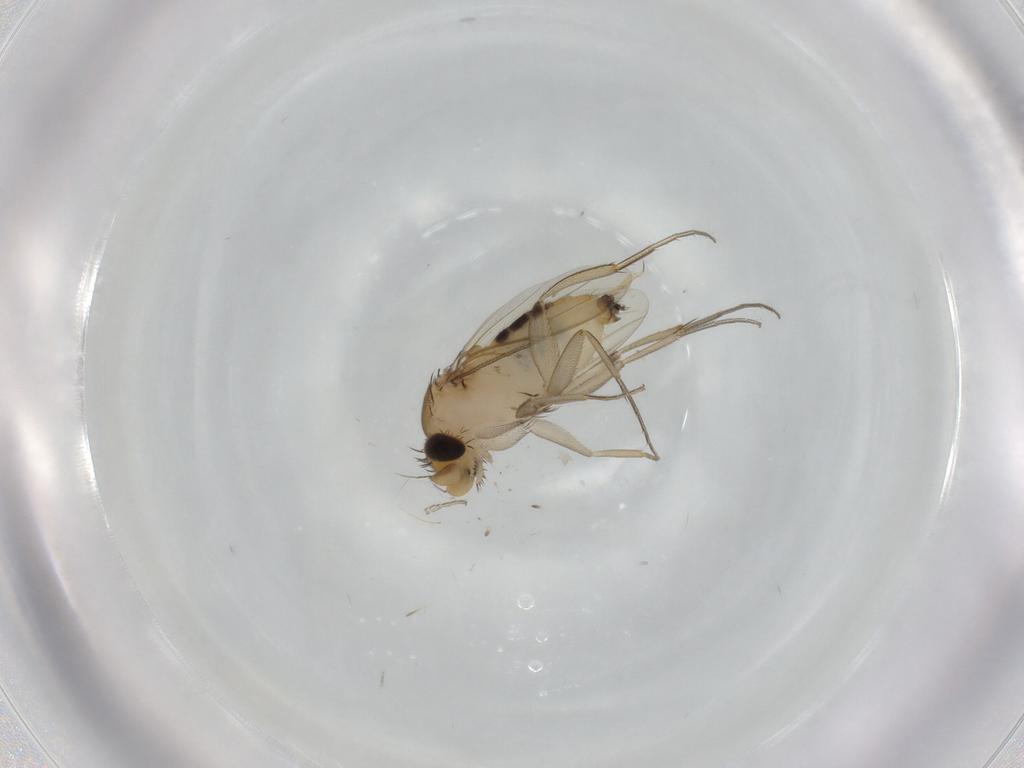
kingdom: Animalia
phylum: Arthropoda
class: Insecta
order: Diptera
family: Phoridae
